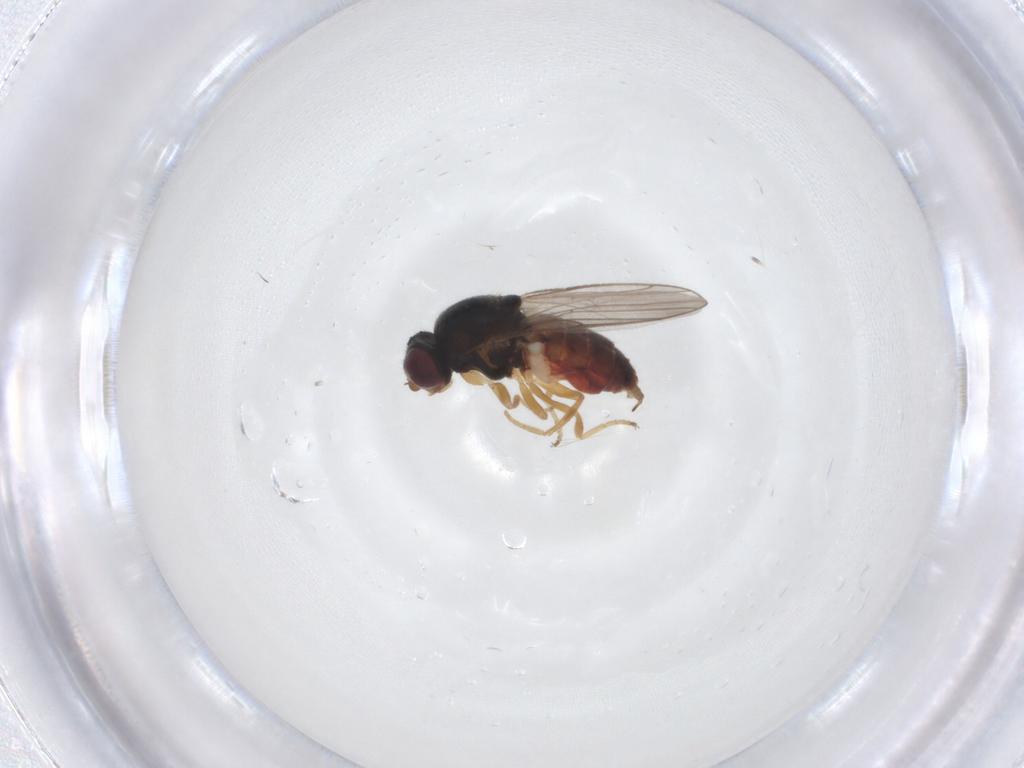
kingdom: Animalia
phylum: Arthropoda
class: Insecta
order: Diptera
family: Chloropidae
